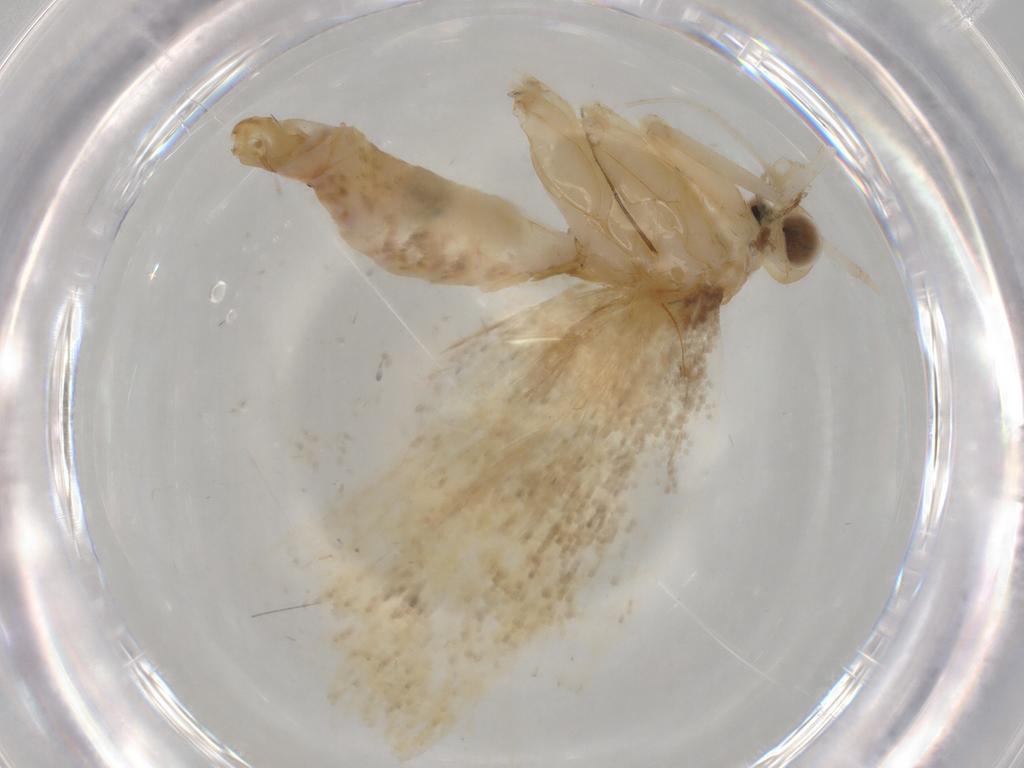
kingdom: Animalia
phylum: Arthropoda
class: Insecta
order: Lepidoptera
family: Lecithoceridae
